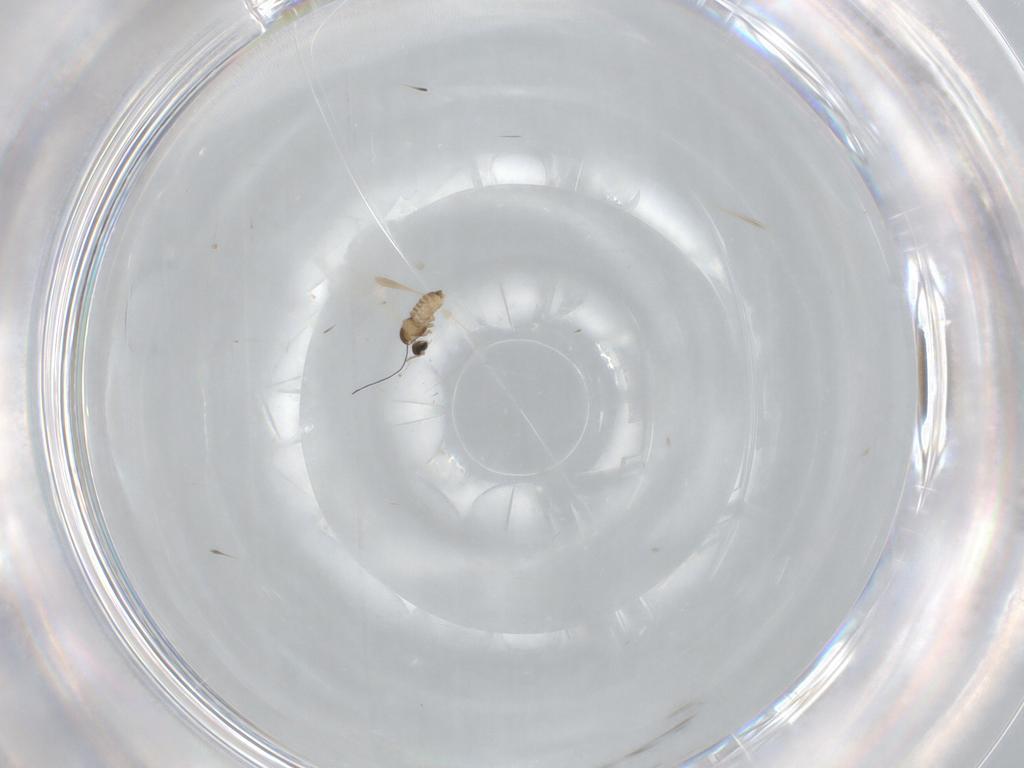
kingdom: Animalia
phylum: Arthropoda
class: Insecta
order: Diptera
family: Cecidomyiidae
